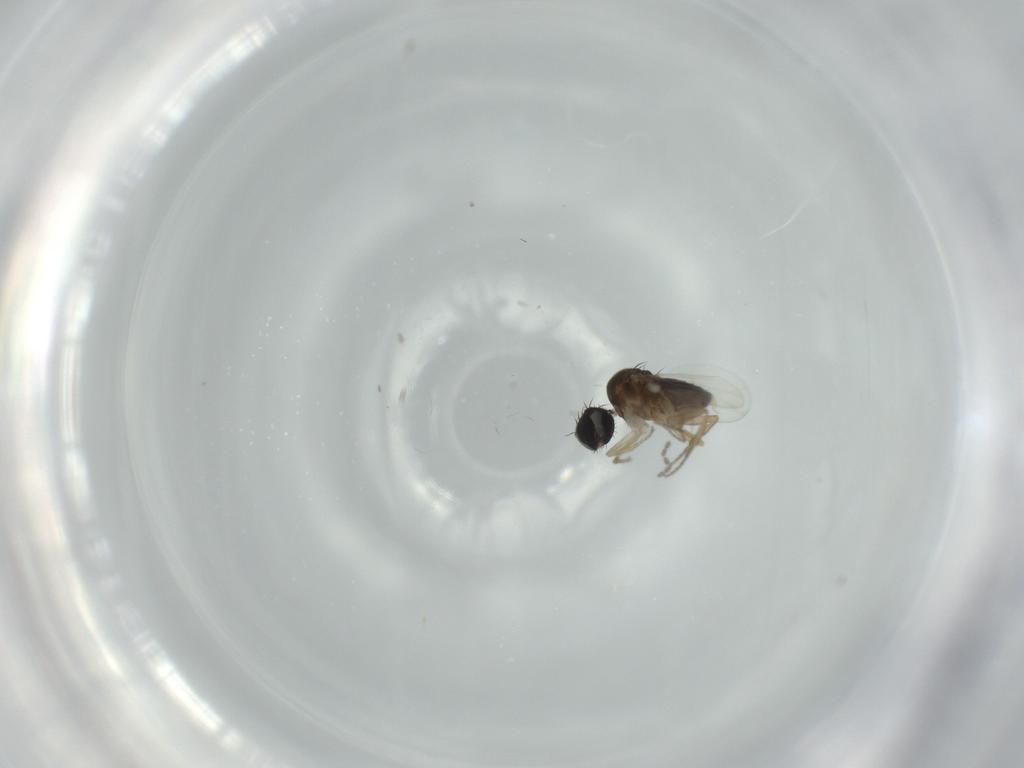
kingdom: Animalia
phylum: Arthropoda
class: Insecta
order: Diptera
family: Phoridae
